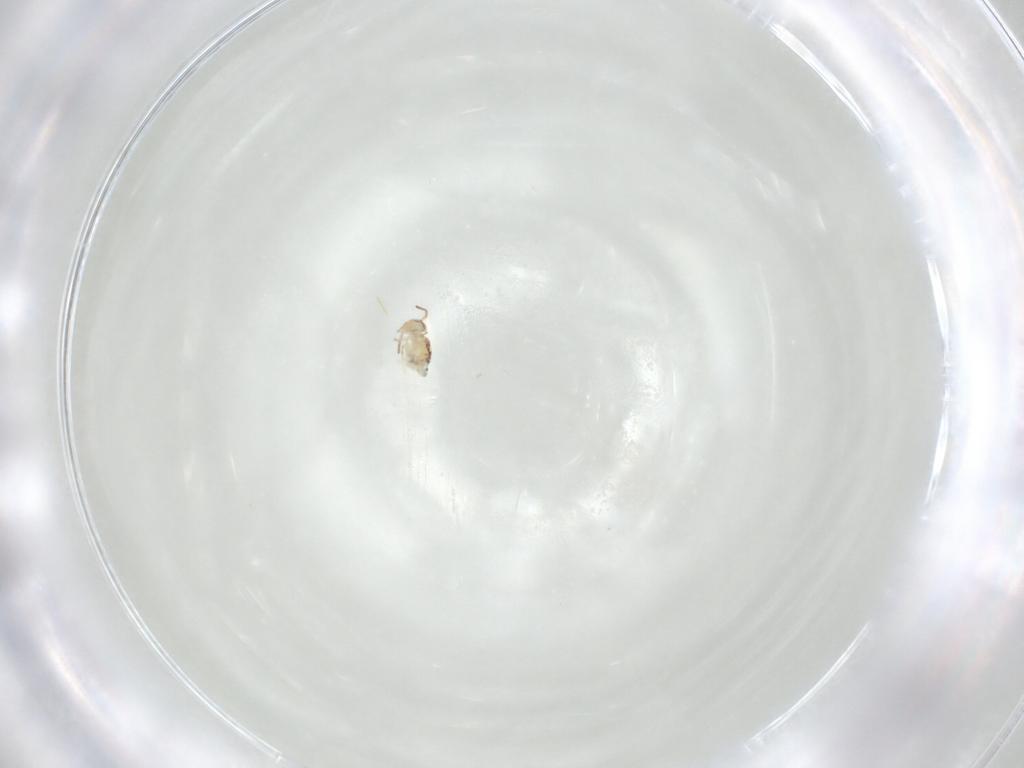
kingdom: Animalia
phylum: Arthropoda
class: Collembola
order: Symphypleona
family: Bourletiellidae
